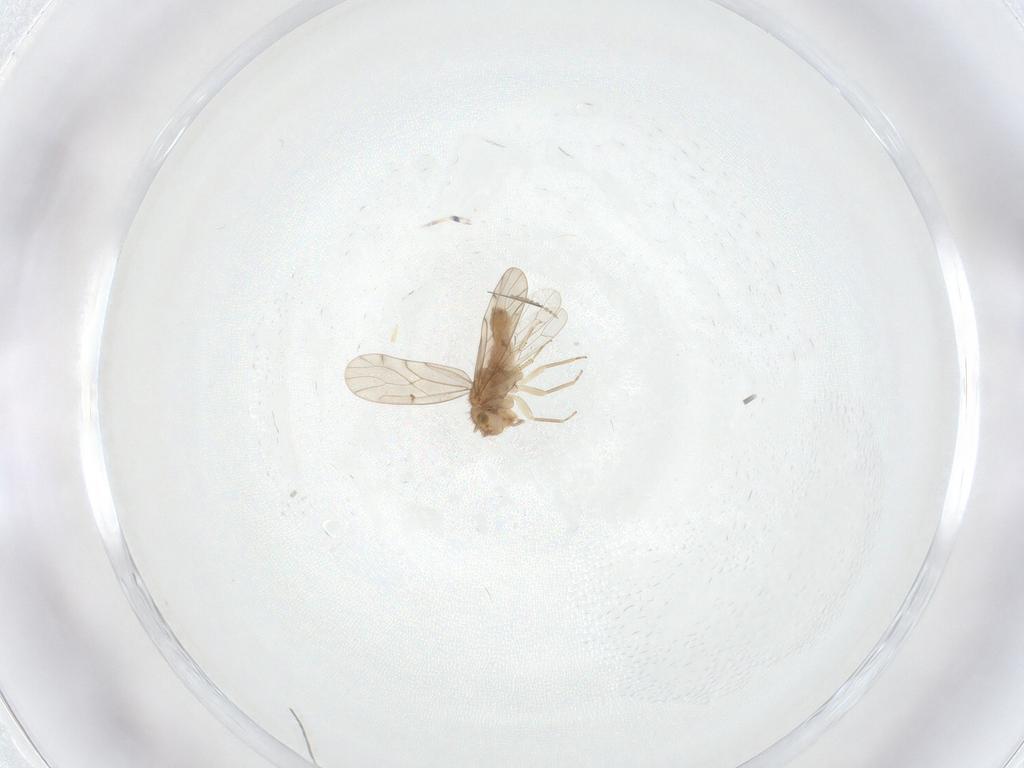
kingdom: Animalia
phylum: Arthropoda
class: Insecta
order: Psocodea
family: Ectopsocidae
